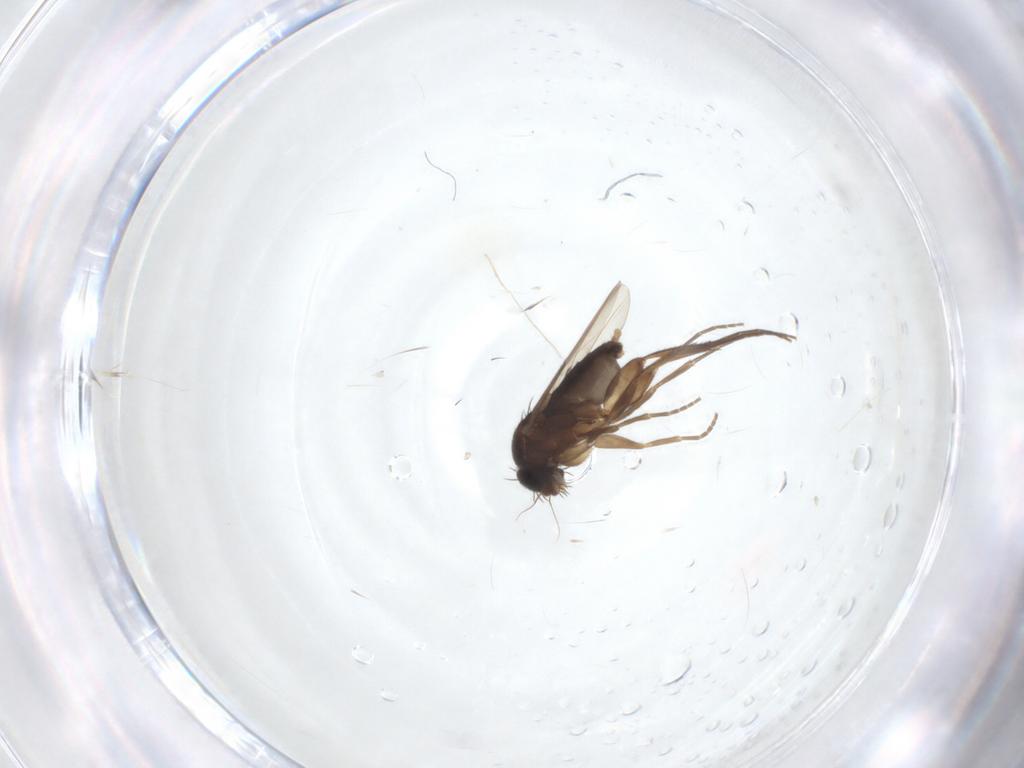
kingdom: Animalia
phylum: Arthropoda
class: Insecta
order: Diptera
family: Phoridae
